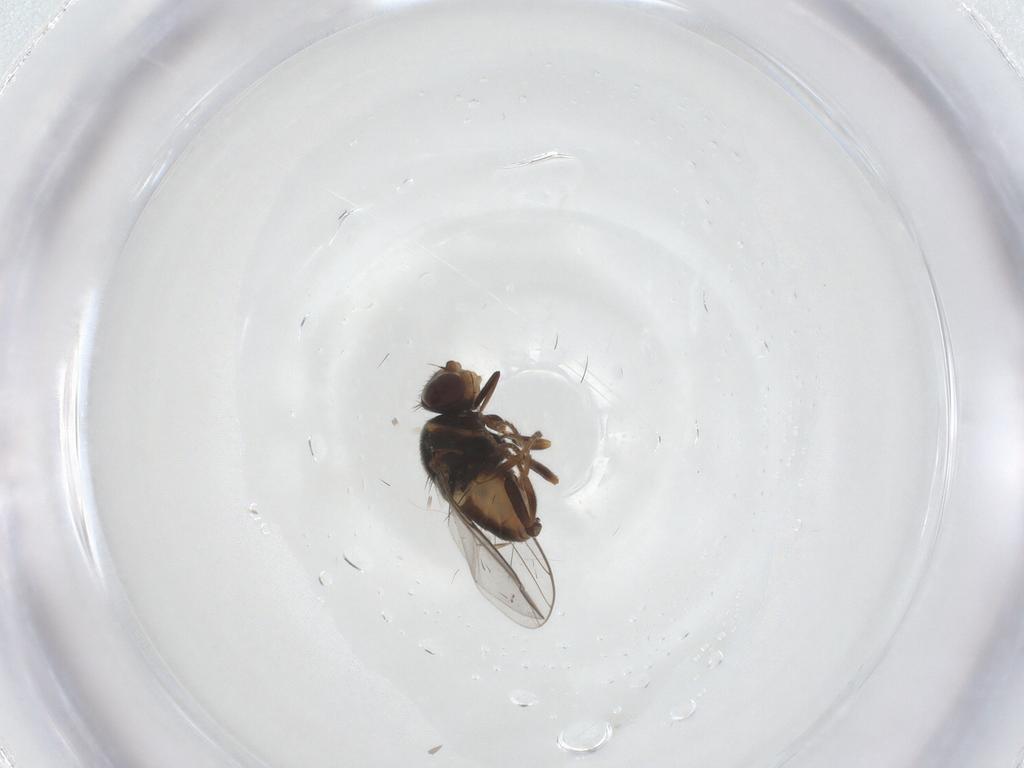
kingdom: Animalia
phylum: Arthropoda
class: Insecta
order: Diptera
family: Chloropidae
